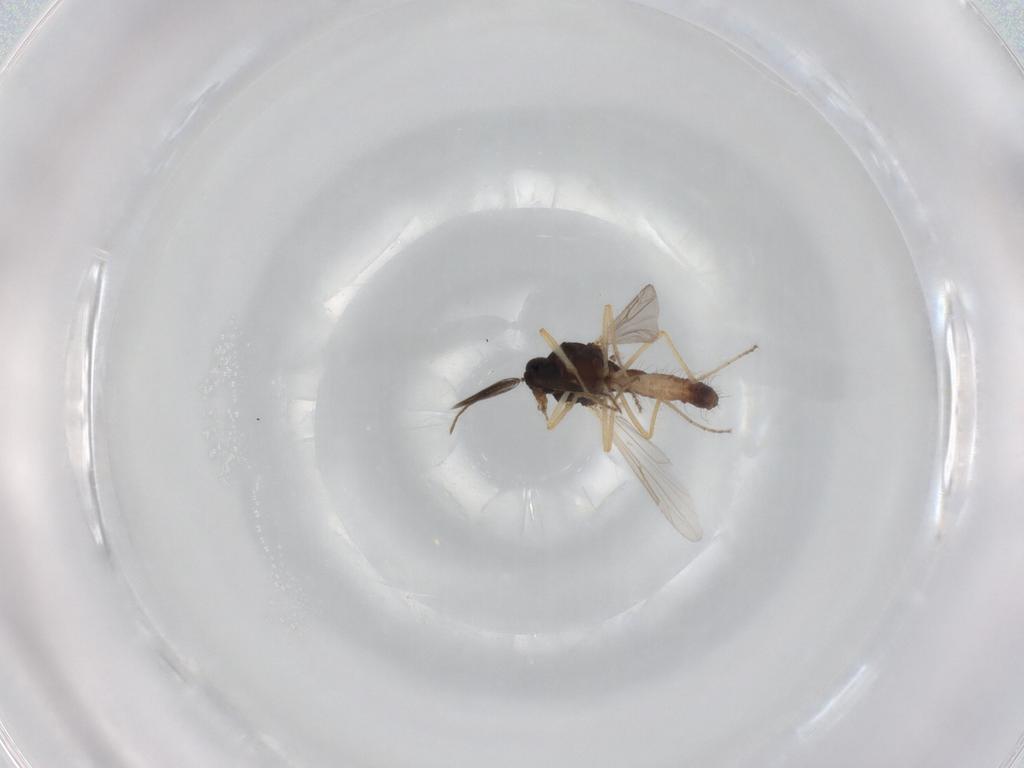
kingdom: Animalia
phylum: Arthropoda
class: Insecta
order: Diptera
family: Ceratopogonidae
